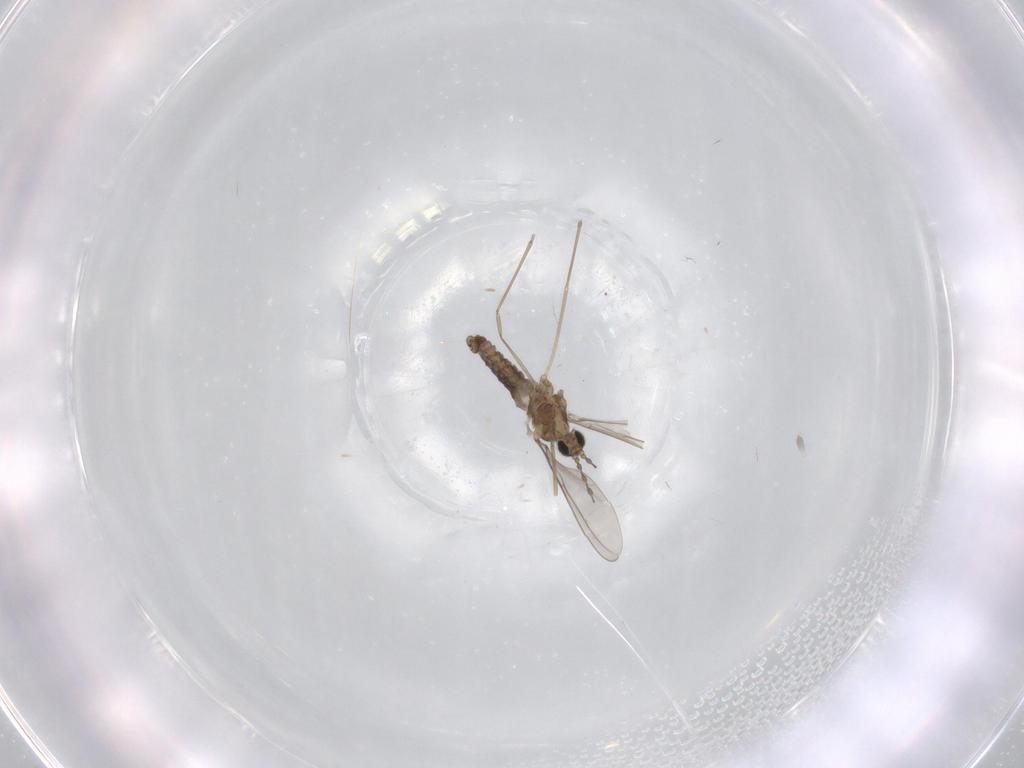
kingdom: Animalia
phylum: Arthropoda
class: Insecta
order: Diptera
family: Cecidomyiidae
